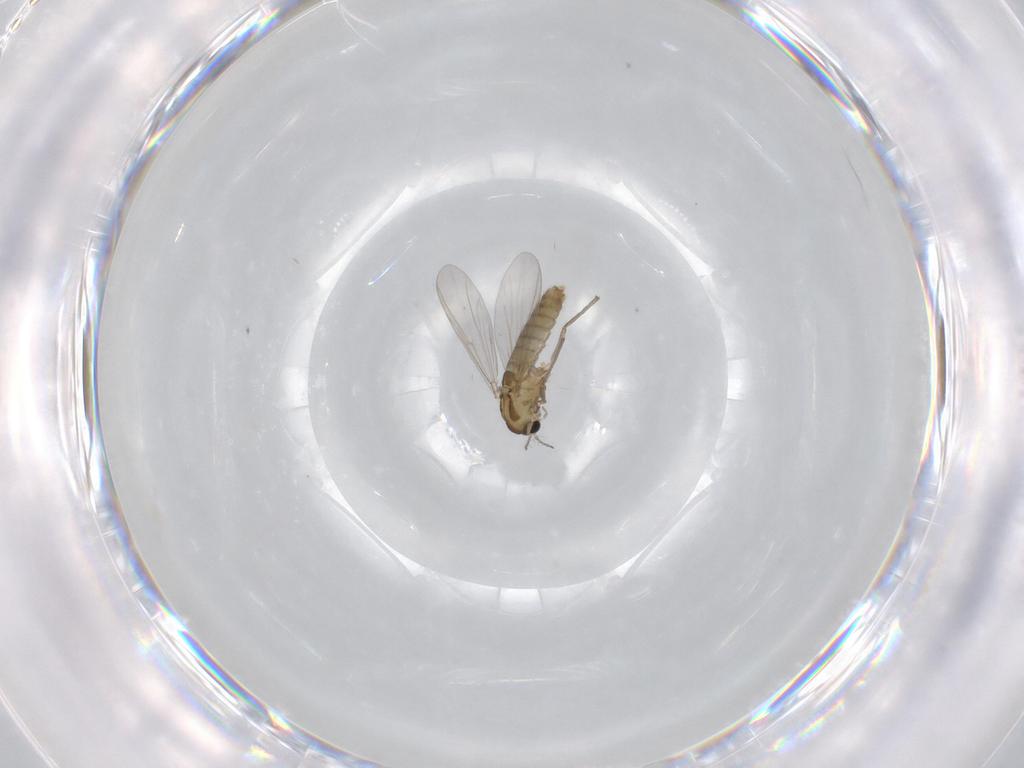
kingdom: Animalia
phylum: Arthropoda
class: Insecta
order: Diptera
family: Chironomidae
